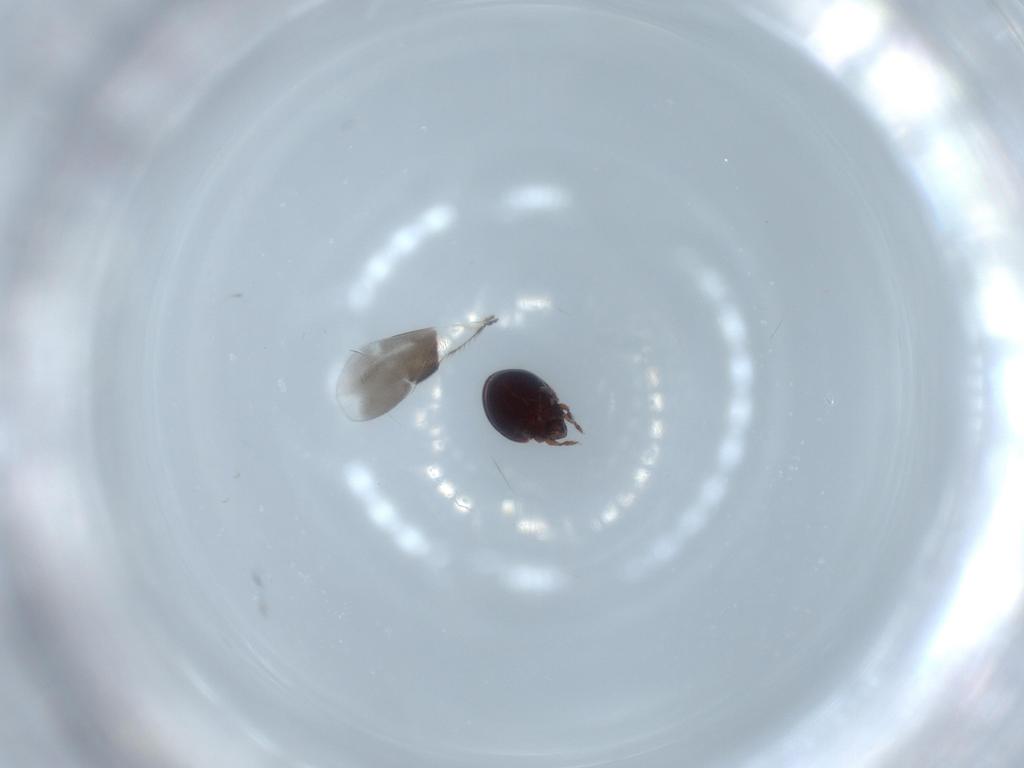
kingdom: Animalia
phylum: Arthropoda
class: Arachnida
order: Trombidiformes
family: Eupodidae
